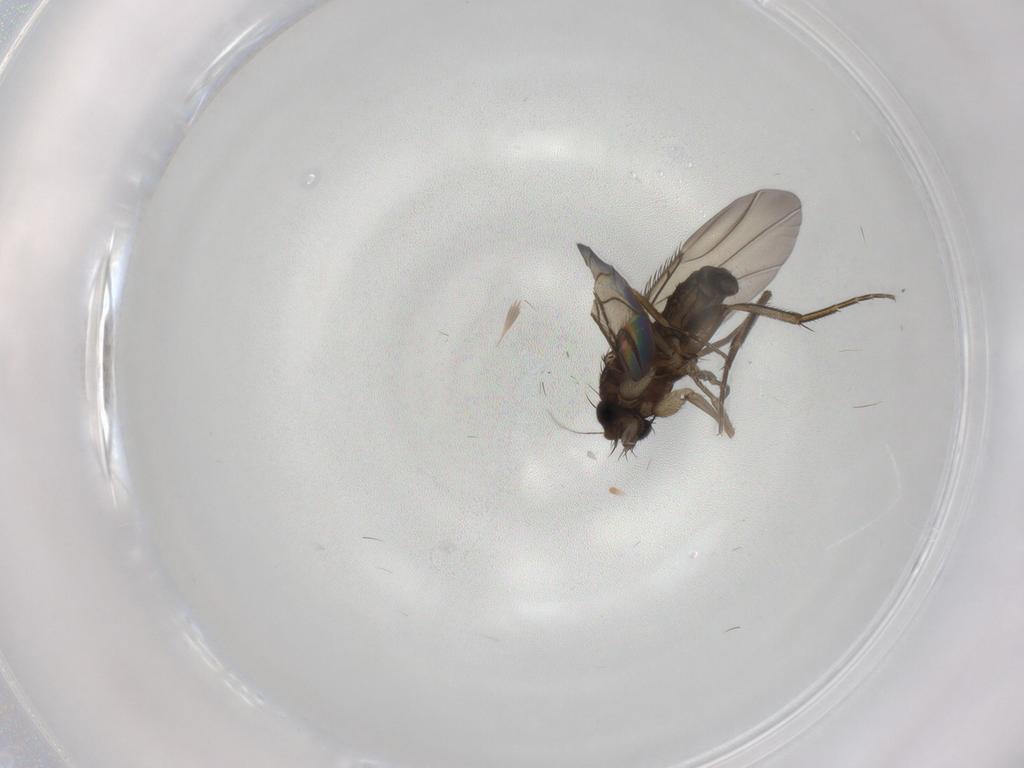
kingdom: Animalia
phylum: Arthropoda
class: Insecta
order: Diptera
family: Phoridae
